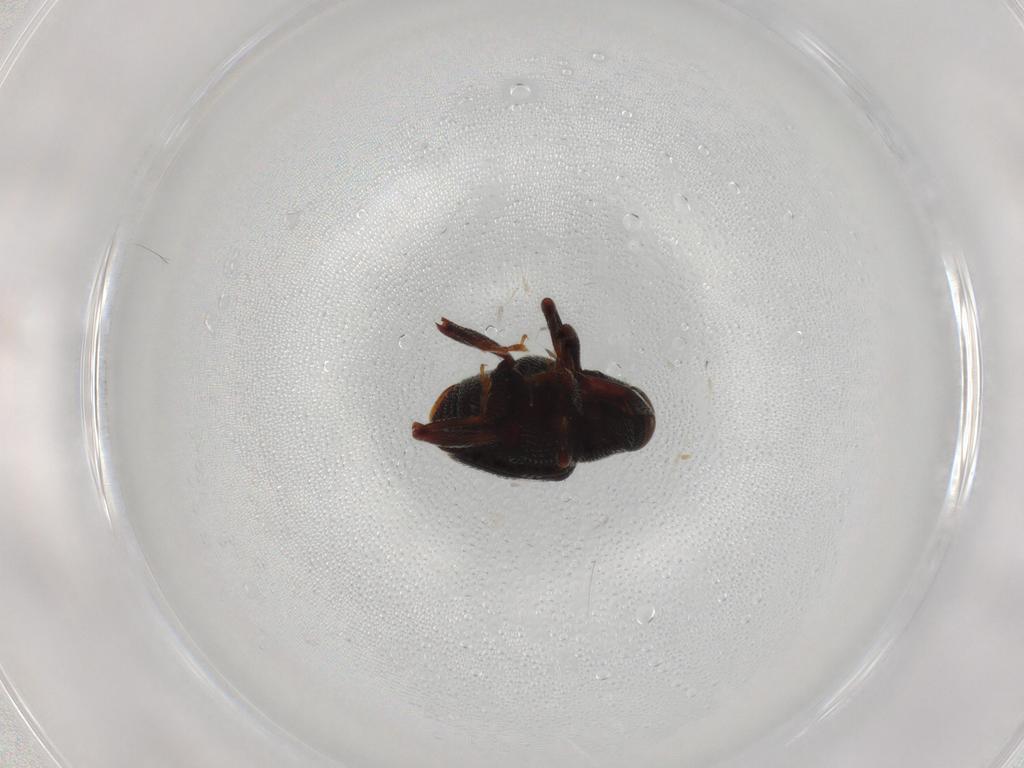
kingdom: Animalia
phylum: Arthropoda
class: Insecta
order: Coleoptera
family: Curculionidae
